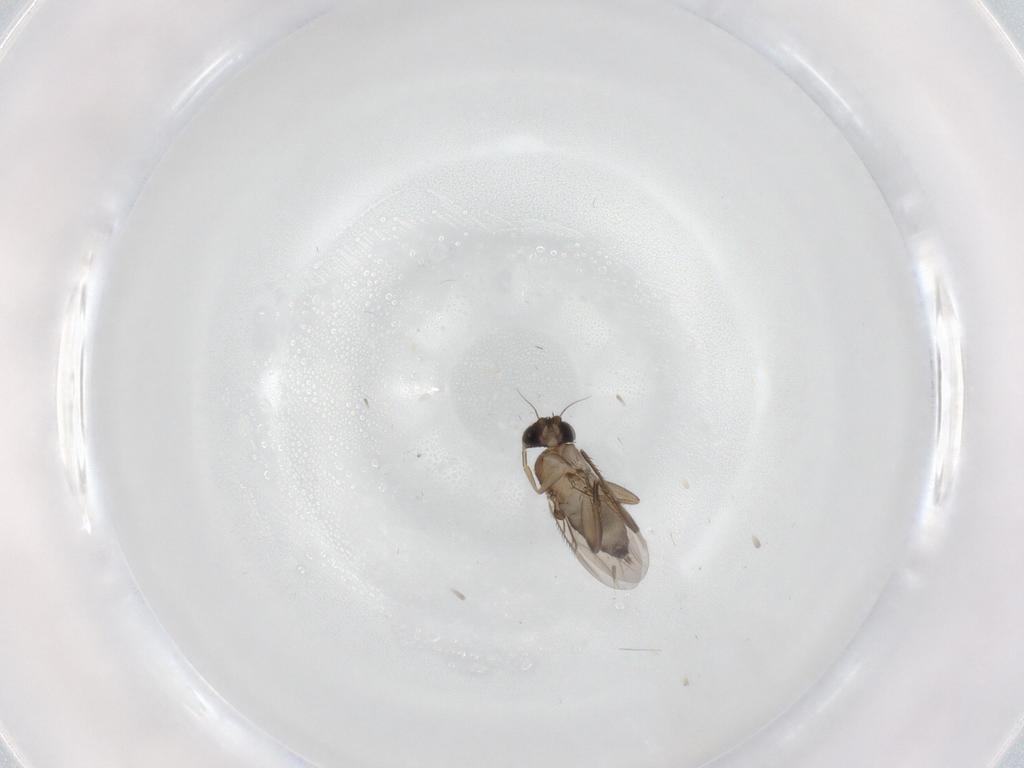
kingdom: Animalia
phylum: Arthropoda
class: Insecta
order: Diptera
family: Phoridae
